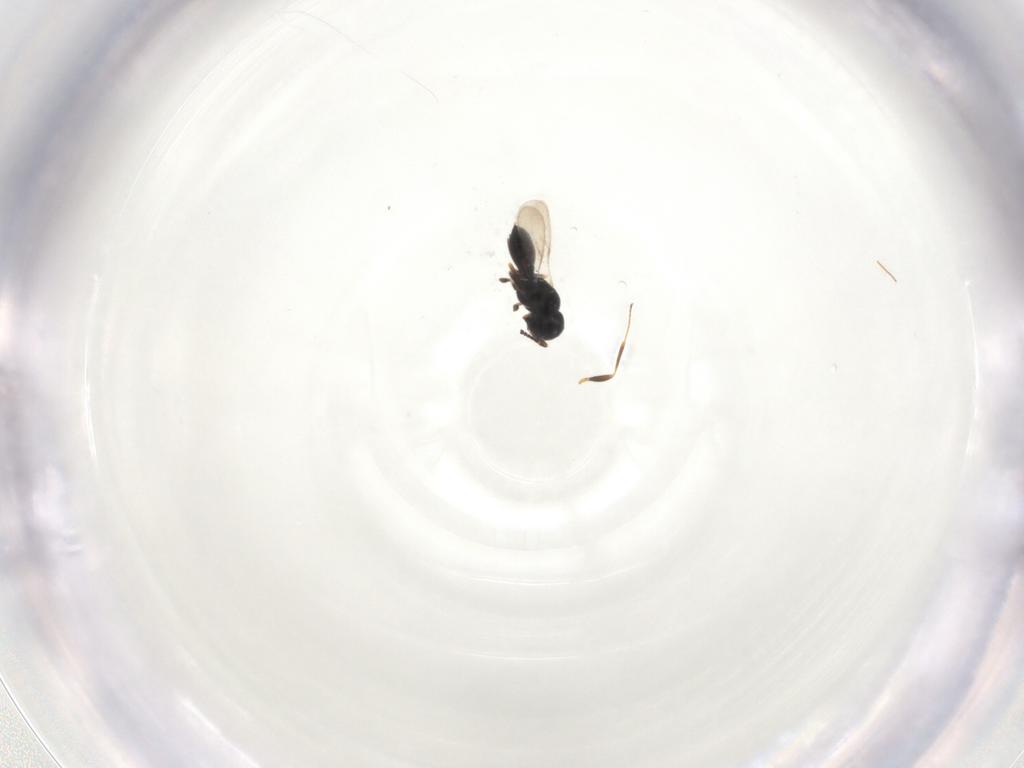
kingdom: Animalia
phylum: Arthropoda
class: Insecta
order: Hymenoptera
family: Scelionidae
